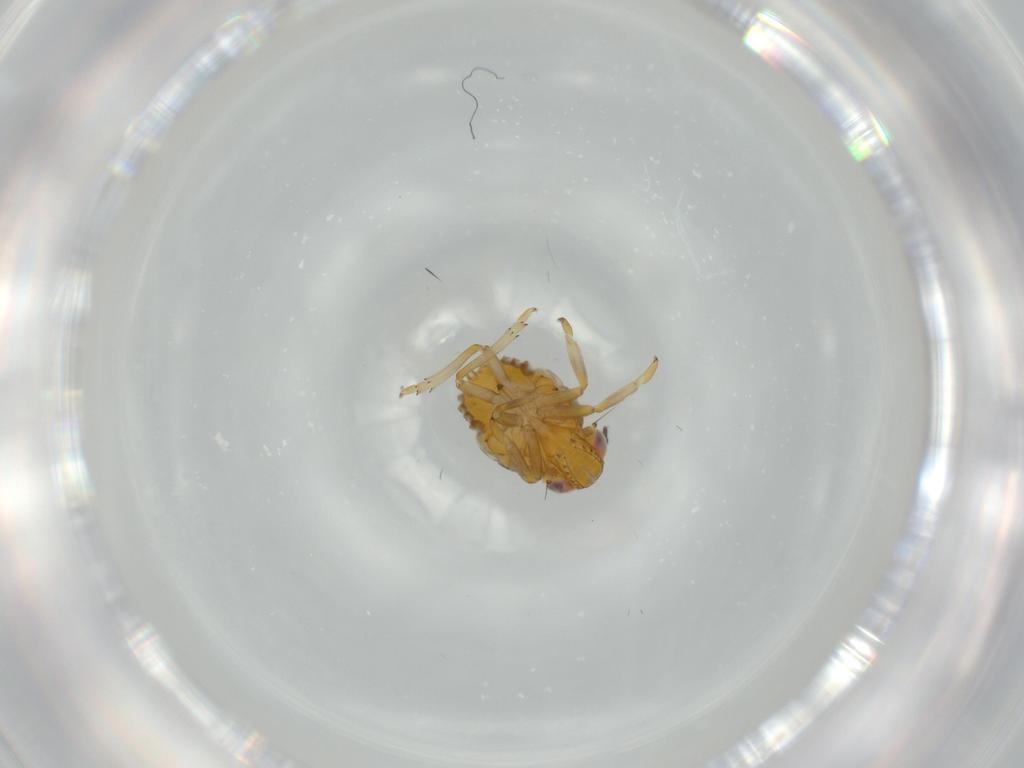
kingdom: Animalia
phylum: Arthropoda
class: Insecta
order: Hemiptera
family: Issidae
